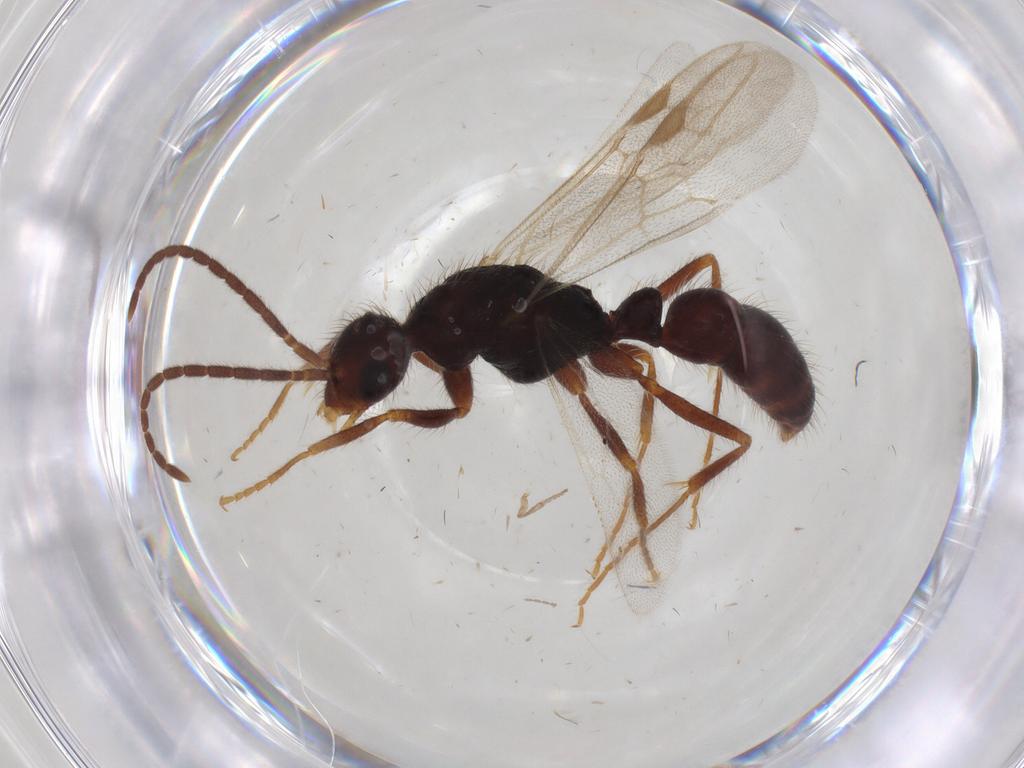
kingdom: Animalia
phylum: Arthropoda
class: Insecta
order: Hymenoptera
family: Formicidae
